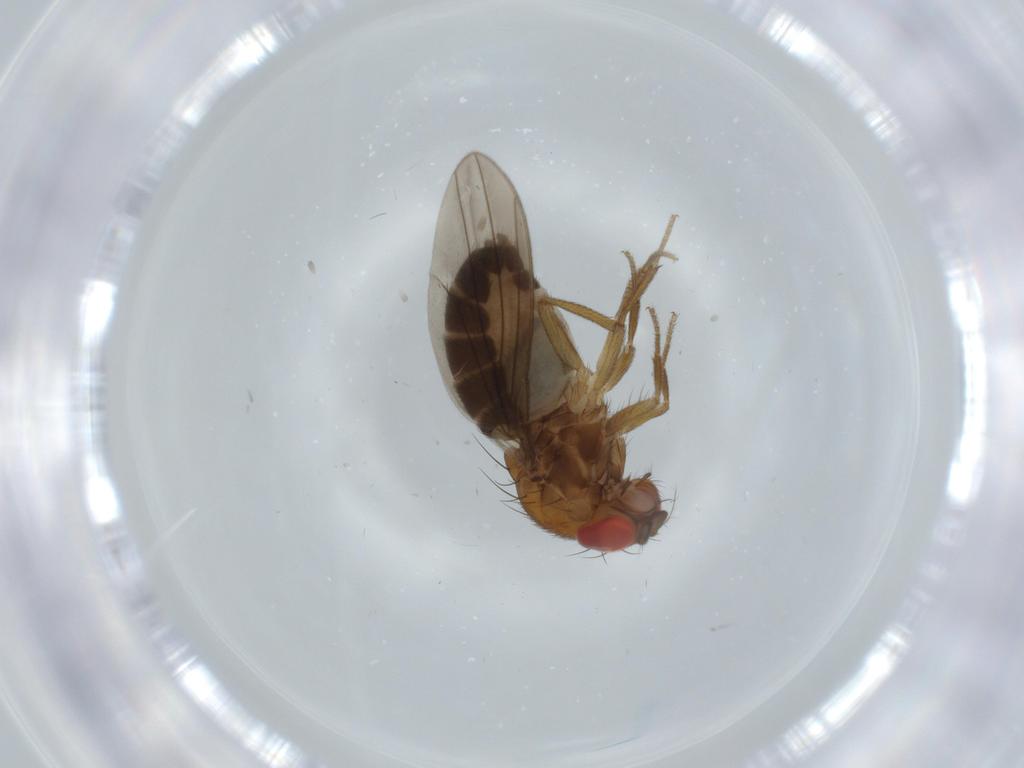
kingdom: Animalia
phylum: Arthropoda
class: Insecta
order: Diptera
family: Drosophilidae
